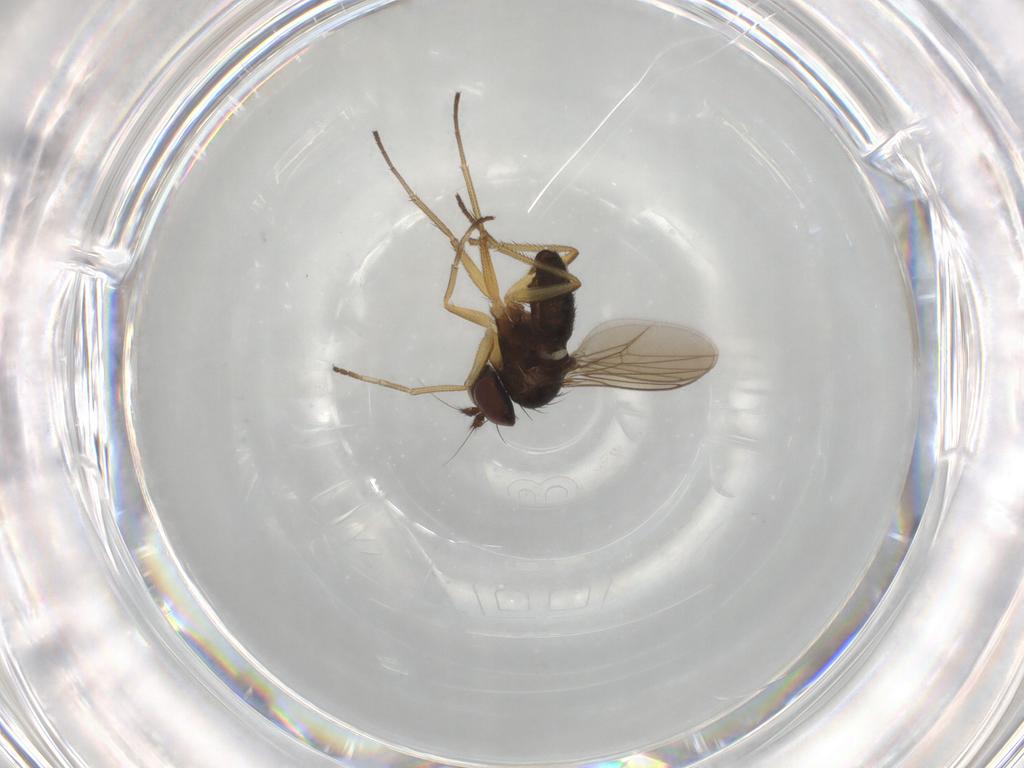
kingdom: Animalia
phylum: Arthropoda
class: Insecta
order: Diptera
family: Dolichopodidae
